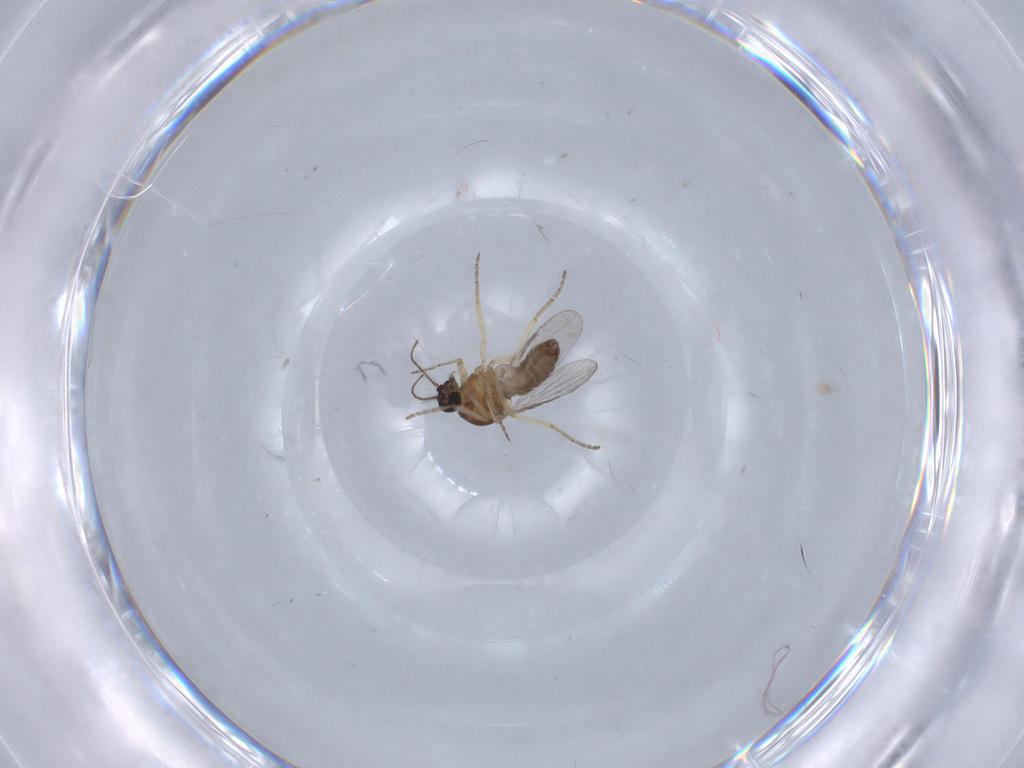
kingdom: Animalia
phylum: Arthropoda
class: Insecta
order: Diptera
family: Ceratopogonidae
